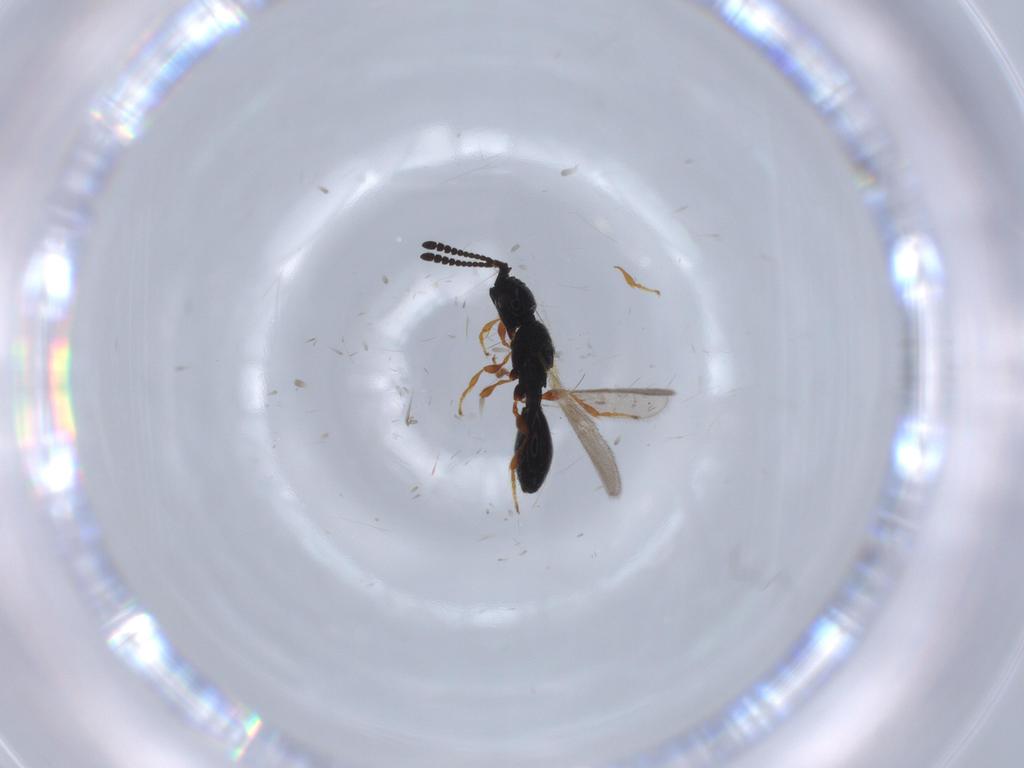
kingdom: Animalia
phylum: Arthropoda
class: Insecta
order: Hymenoptera
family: Diapriidae
